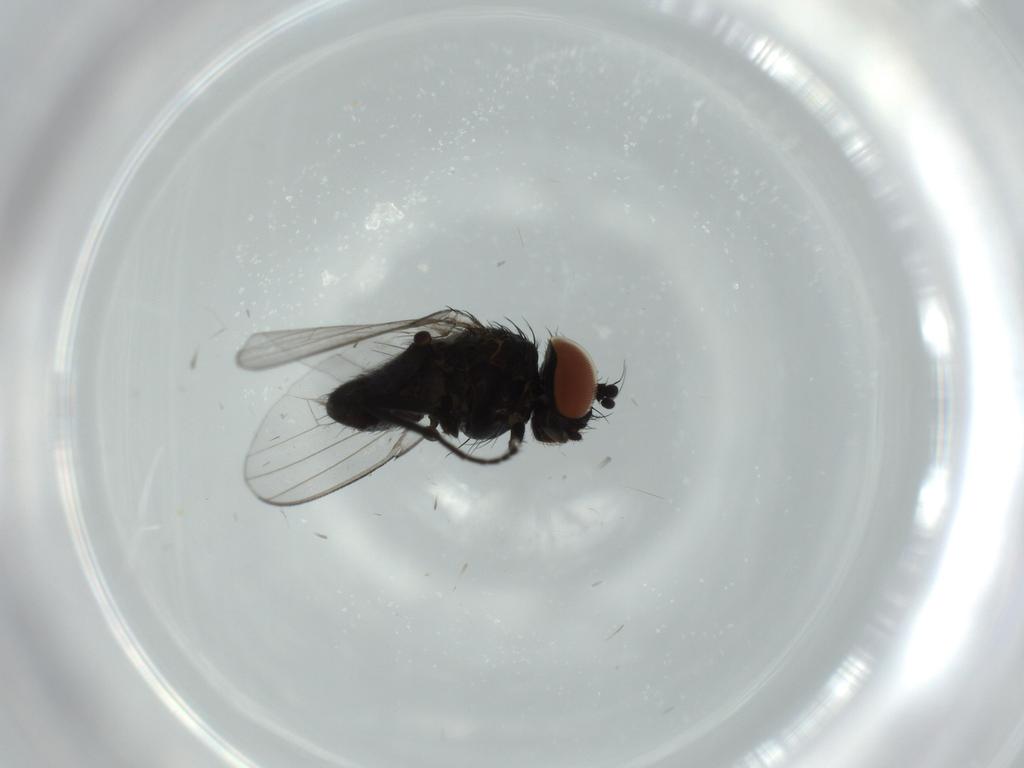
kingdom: Animalia
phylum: Arthropoda
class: Insecta
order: Diptera
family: Milichiidae
